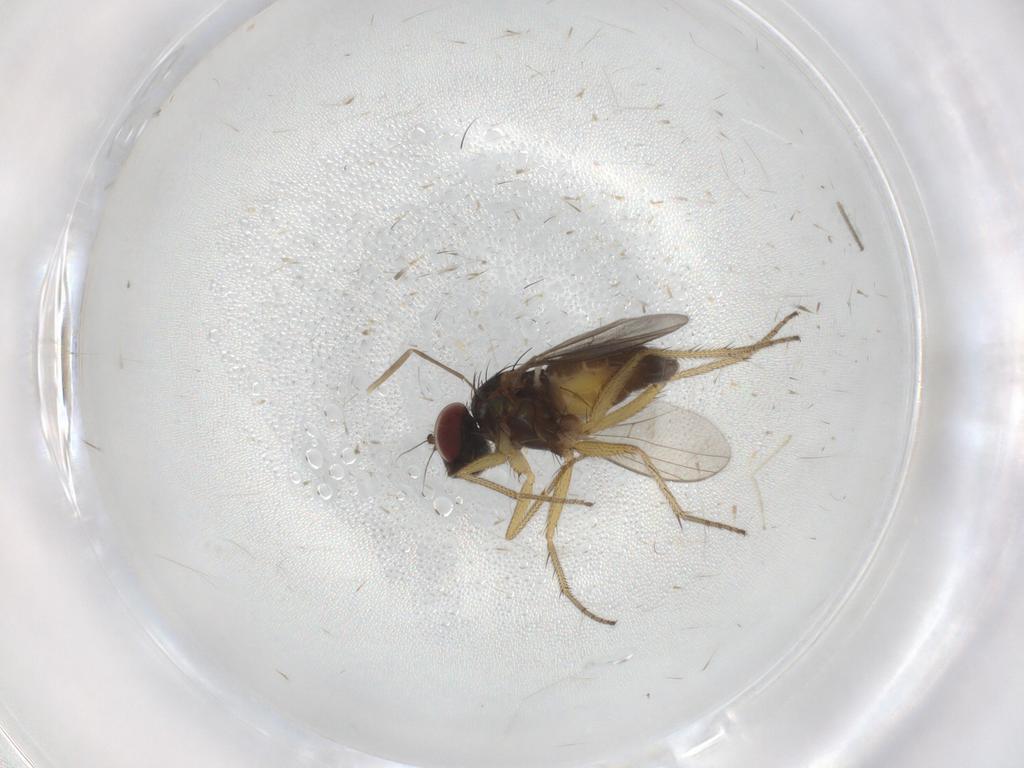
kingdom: Animalia
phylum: Arthropoda
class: Insecta
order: Diptera
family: Dolichopodidae
